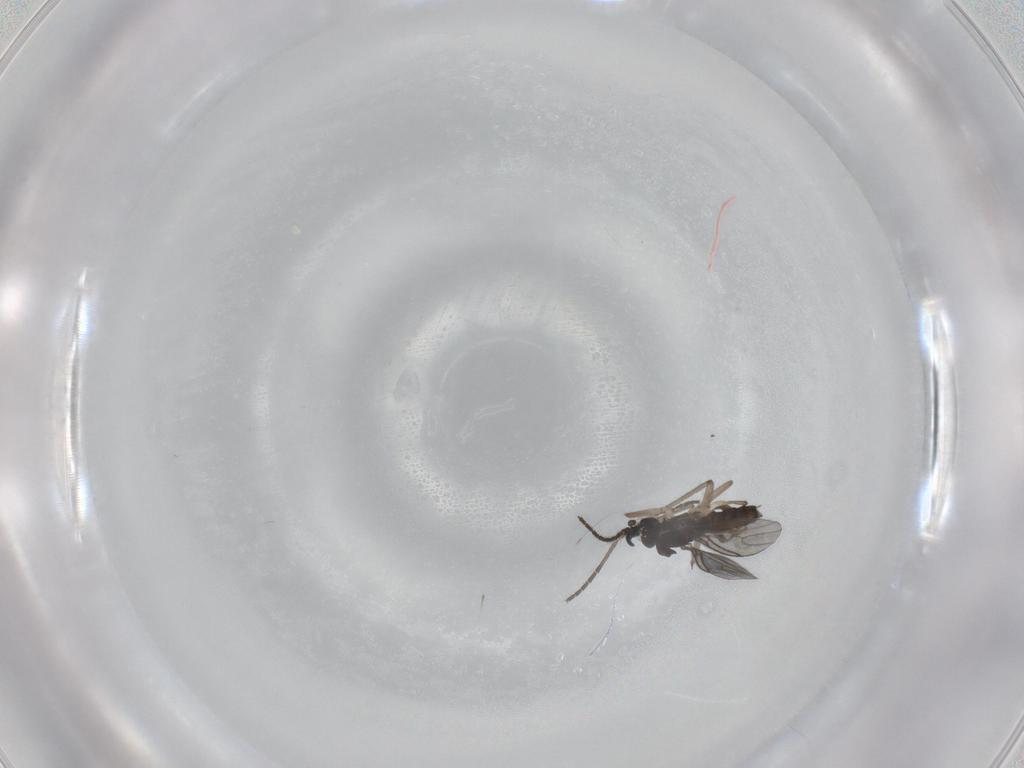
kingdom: Animalia
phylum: Arthropoda
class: Insecta
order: Diptera
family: Sciaridae
